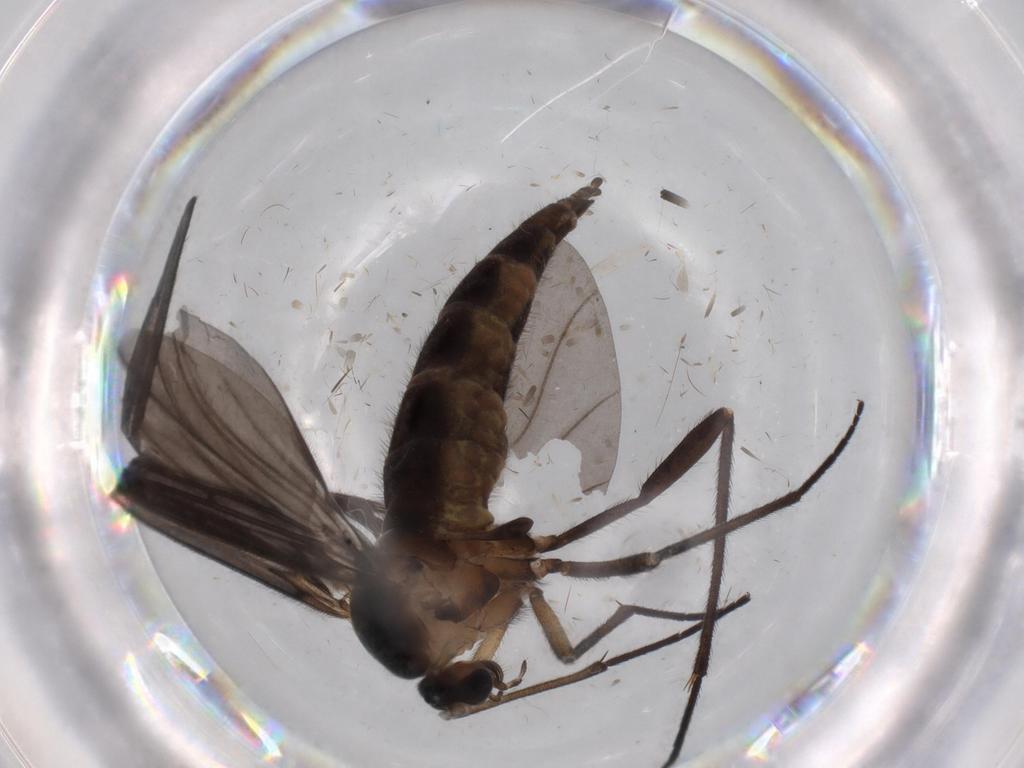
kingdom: Animalia
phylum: Arthropoda
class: Insecta
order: Diptera
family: Sciaridae
